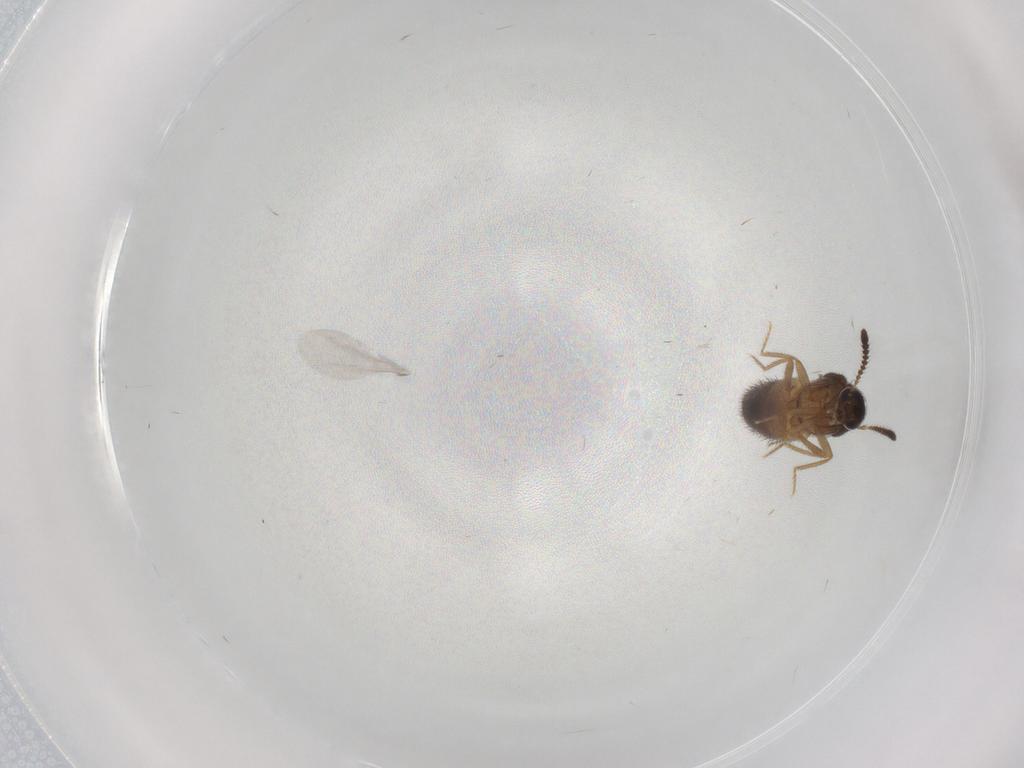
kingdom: Animalia
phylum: Arthropoda
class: Insecta
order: Coleoptera
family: Staphylinidae
